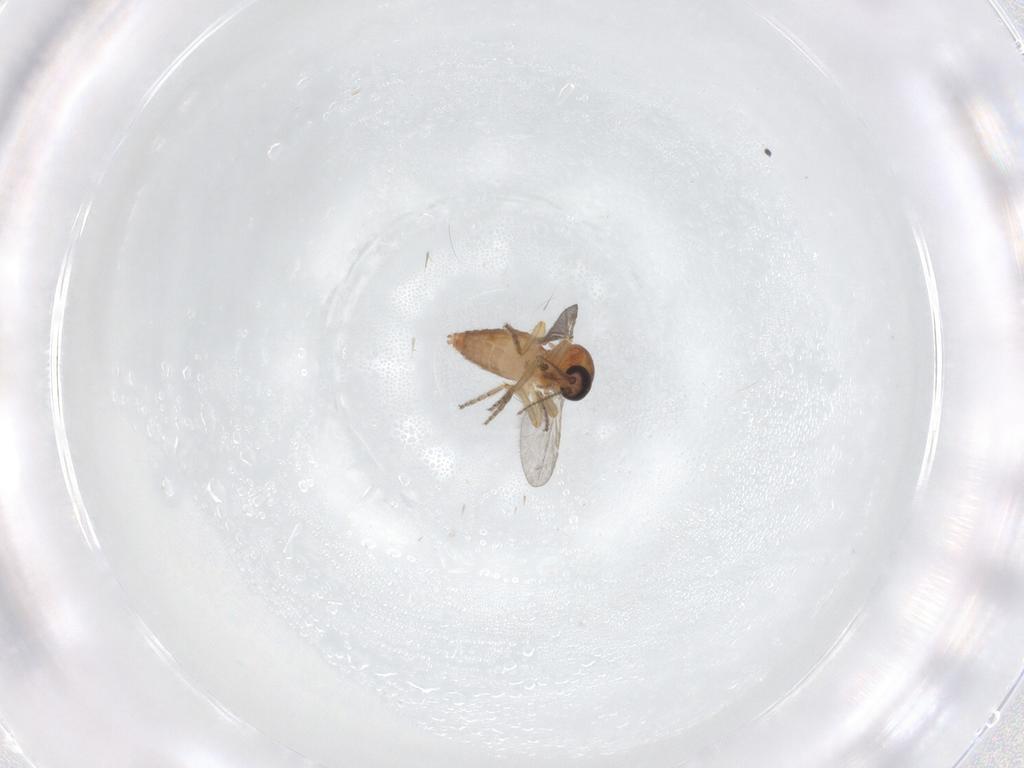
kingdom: Animalia
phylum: Arthropoda
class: Insecta
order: Diptera
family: Ceratopogonidae
